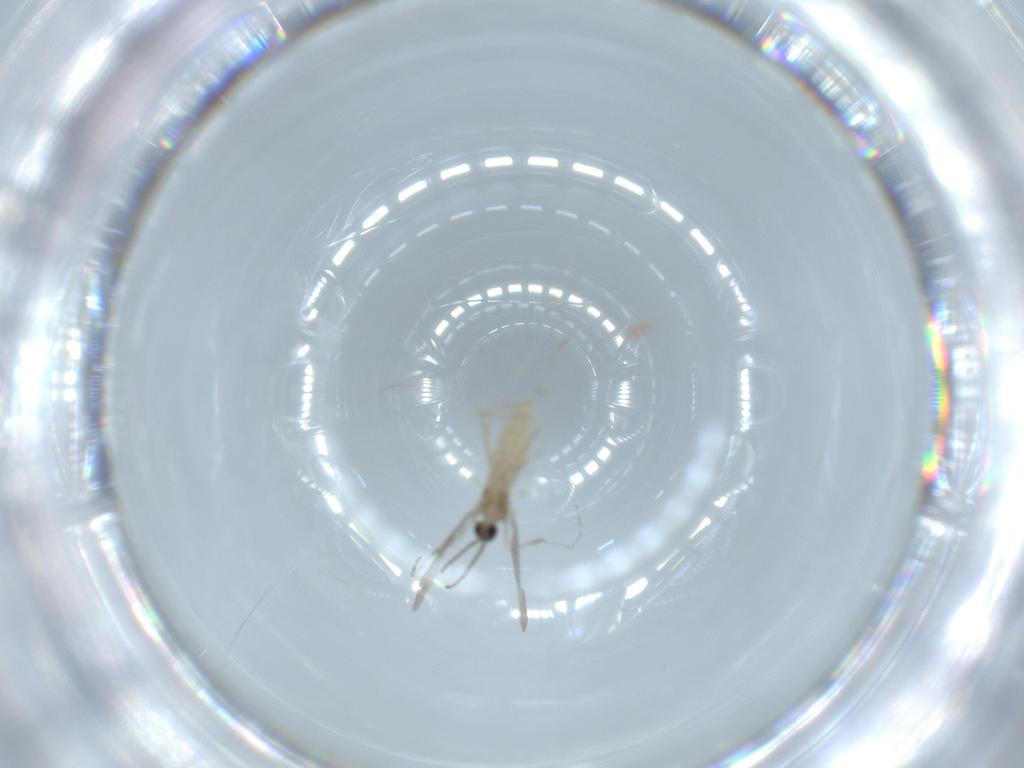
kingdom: Animalia
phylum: Arthropoda
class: Insecta
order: Diptera
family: Cecidomyiidae
